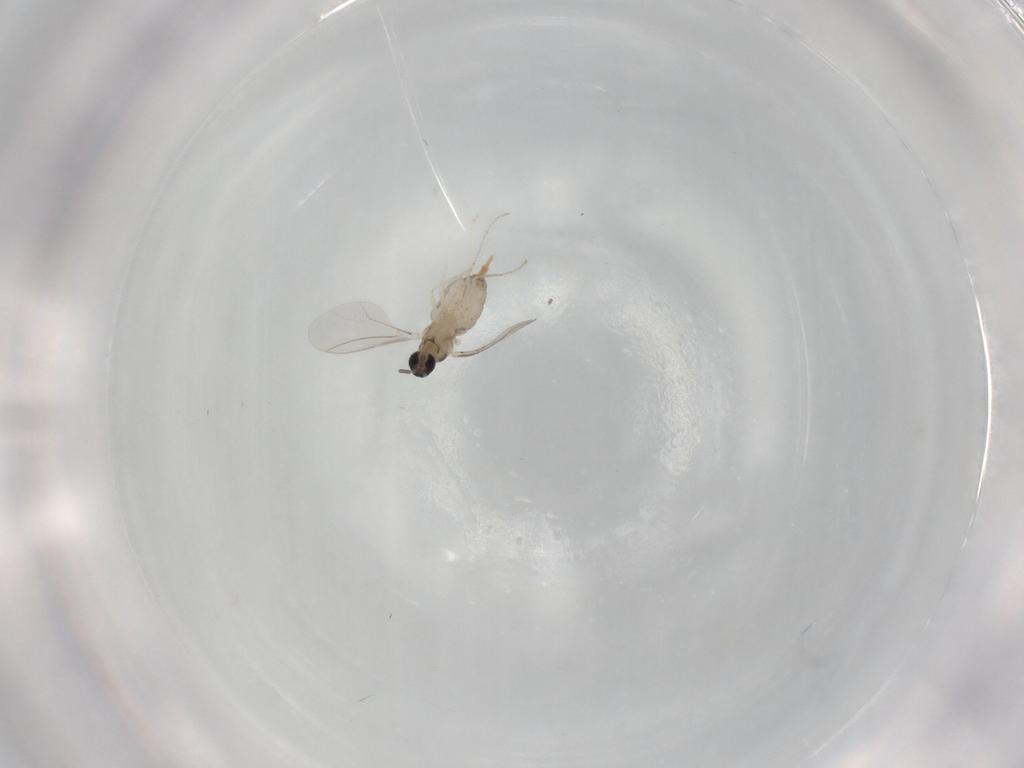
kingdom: Animalia
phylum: Arthropoda
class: Insecta
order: Diptera
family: Cecidomyiidae
